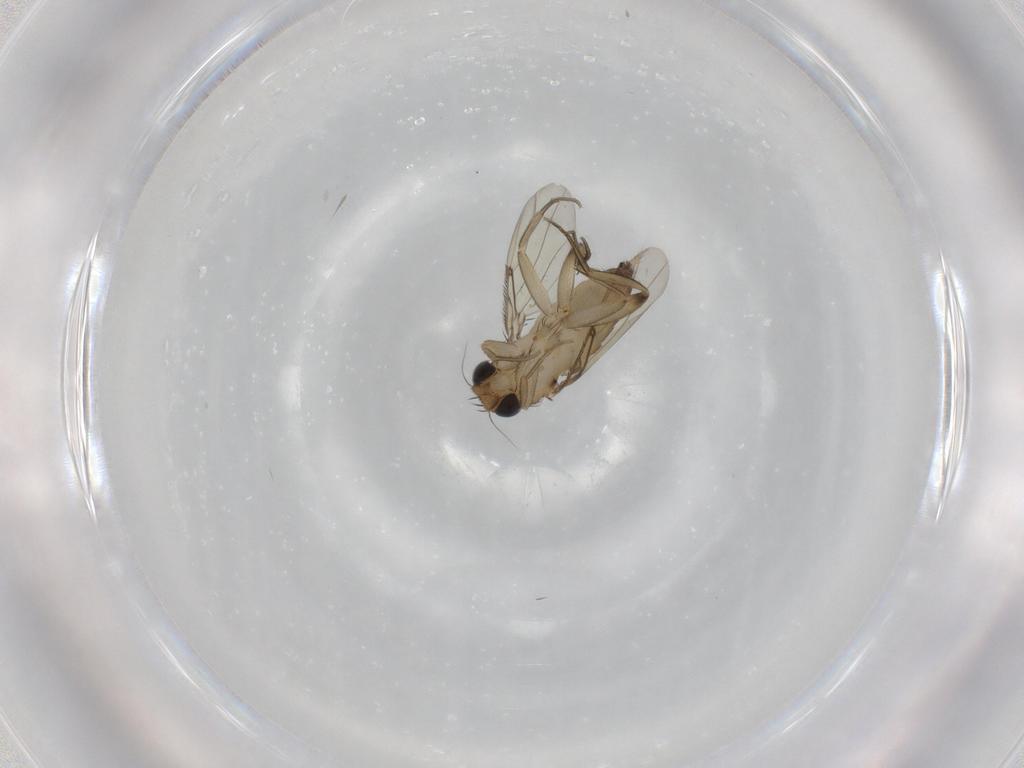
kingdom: Animalia
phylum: Arthropoda
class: Insecta
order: Diptera
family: Phoridae
